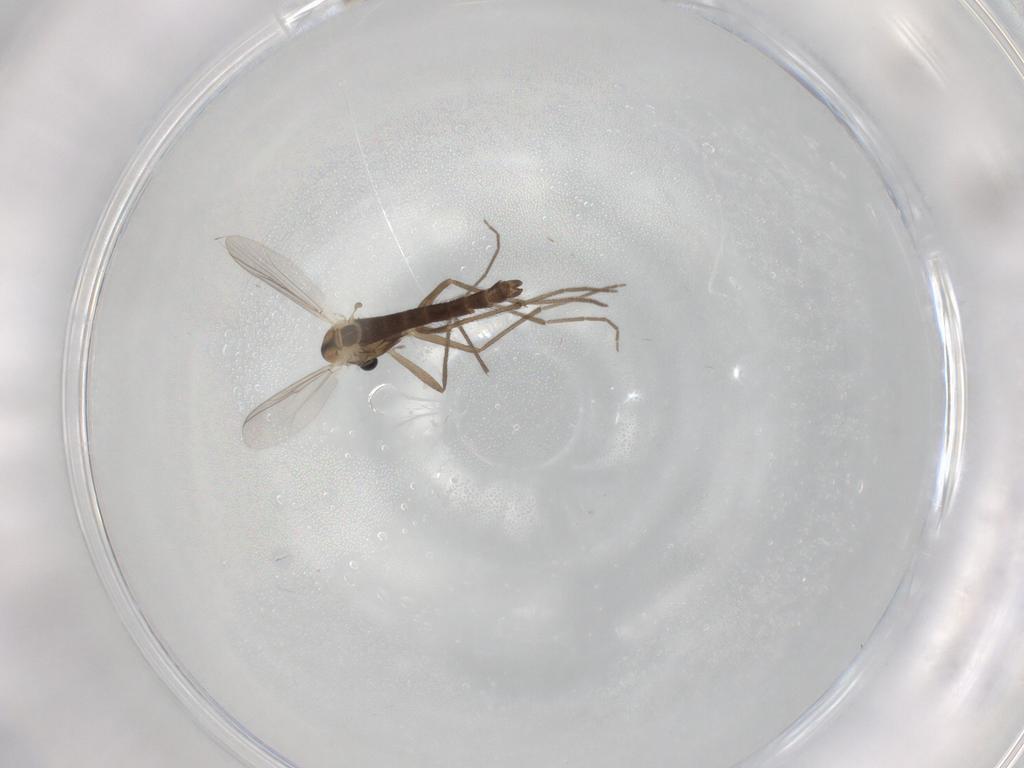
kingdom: Animalia
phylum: Arthropoda
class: Insecta
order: Diptera
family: Chironomidae
